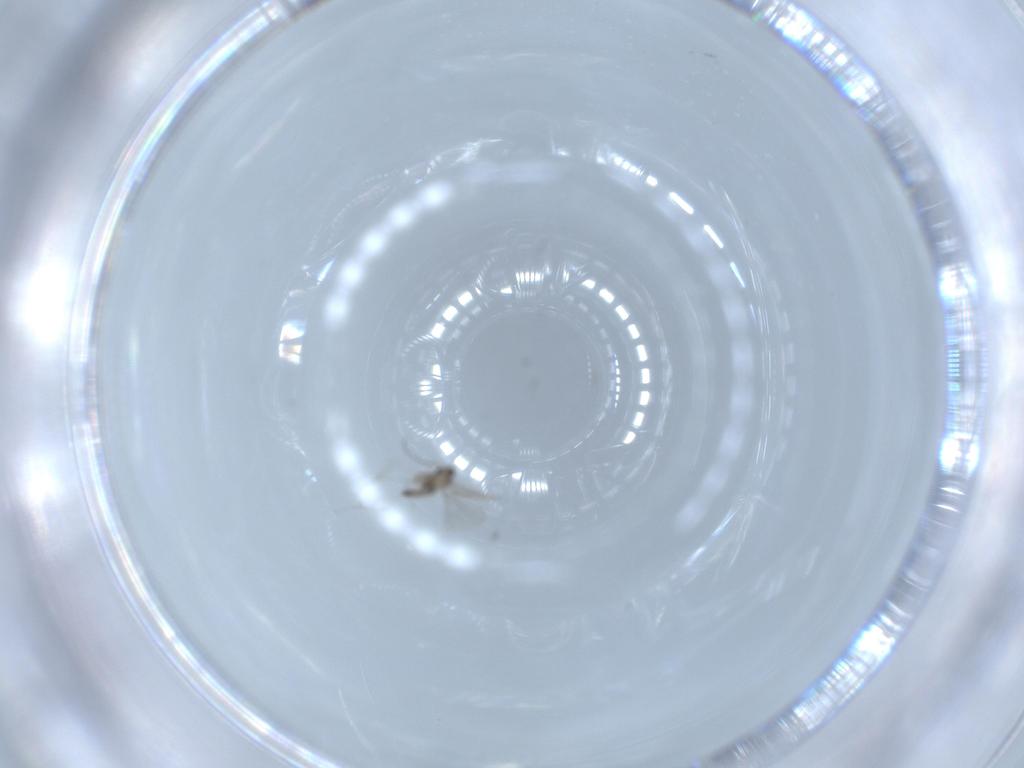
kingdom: Animalia
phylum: Arthropoda
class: Insecta
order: Diptera
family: Cecidomyiidae
